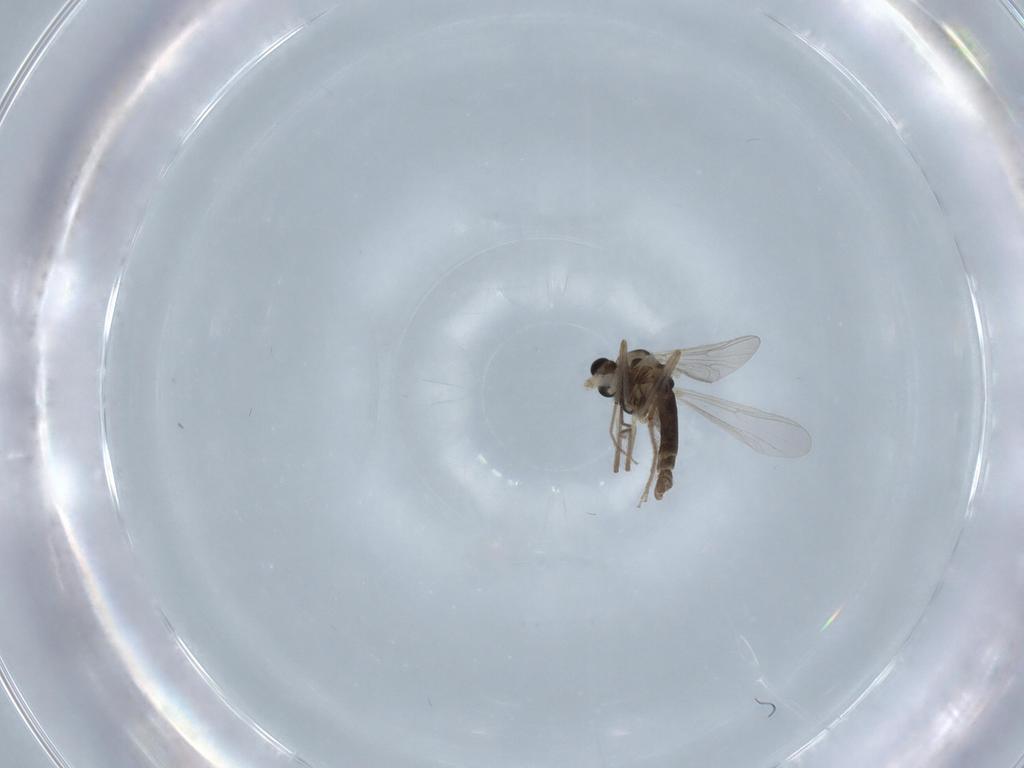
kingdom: Animalia
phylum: Arthropoda
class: Insecta
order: Diptera
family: Chironomidae
